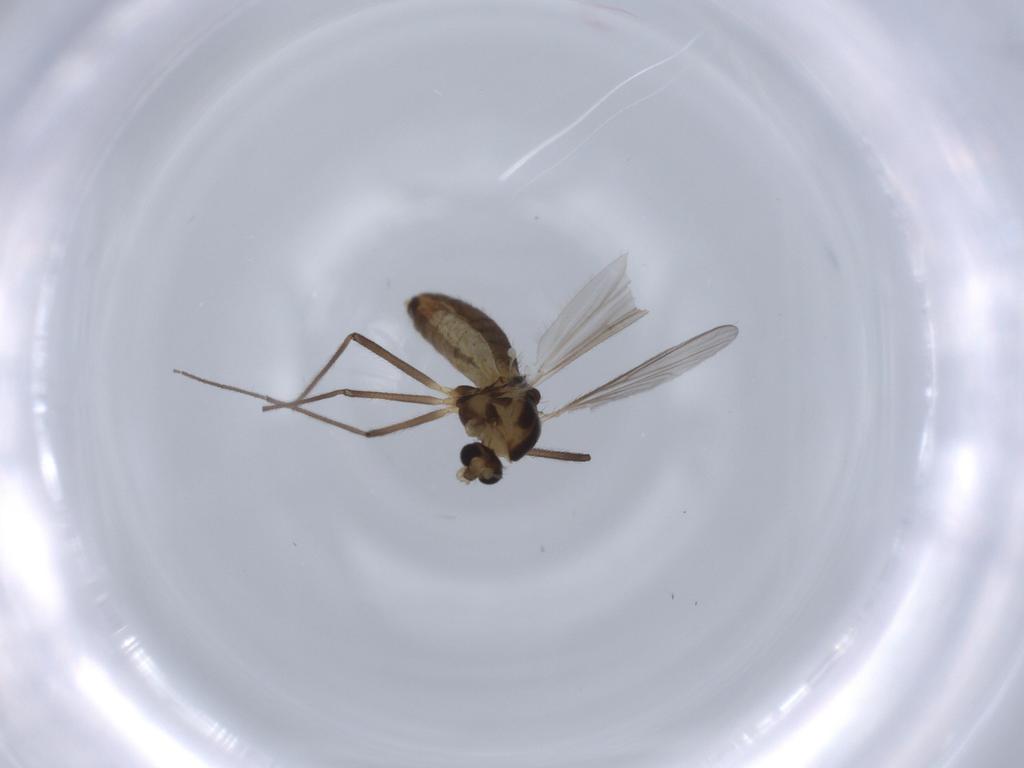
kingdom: Animalia
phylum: Arthropoda
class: Insecta
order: Diptera
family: Chironomidae
